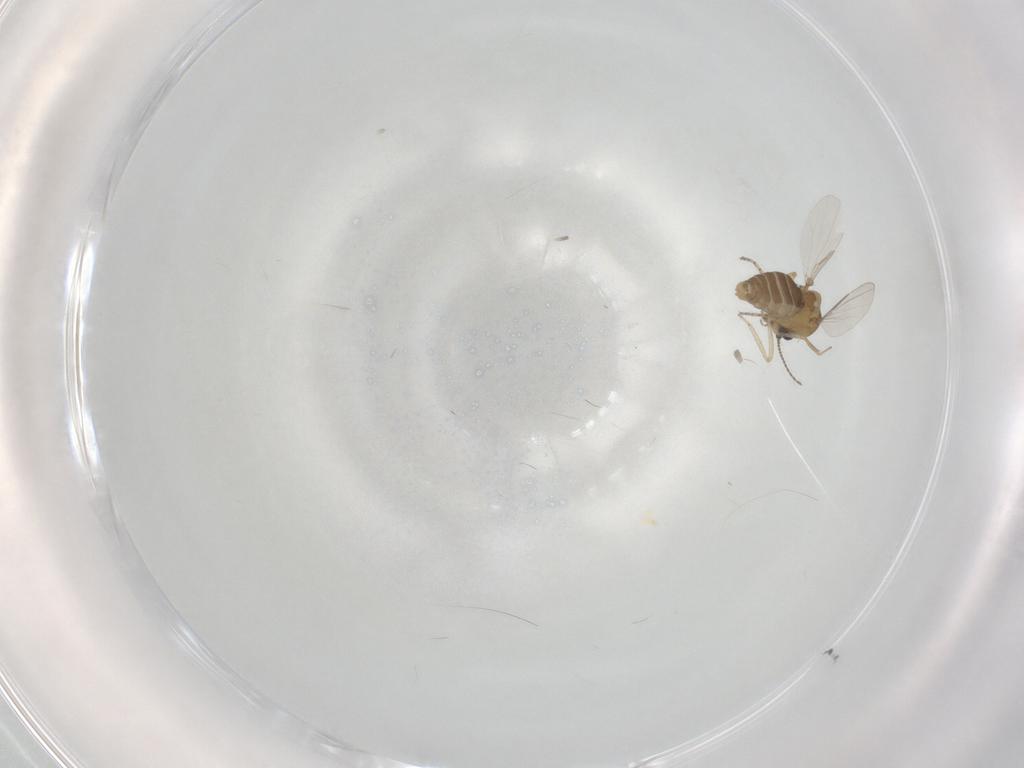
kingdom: Animalia
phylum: Arthropoda
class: Insecta
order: Diptera
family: Ceratopogonidae
